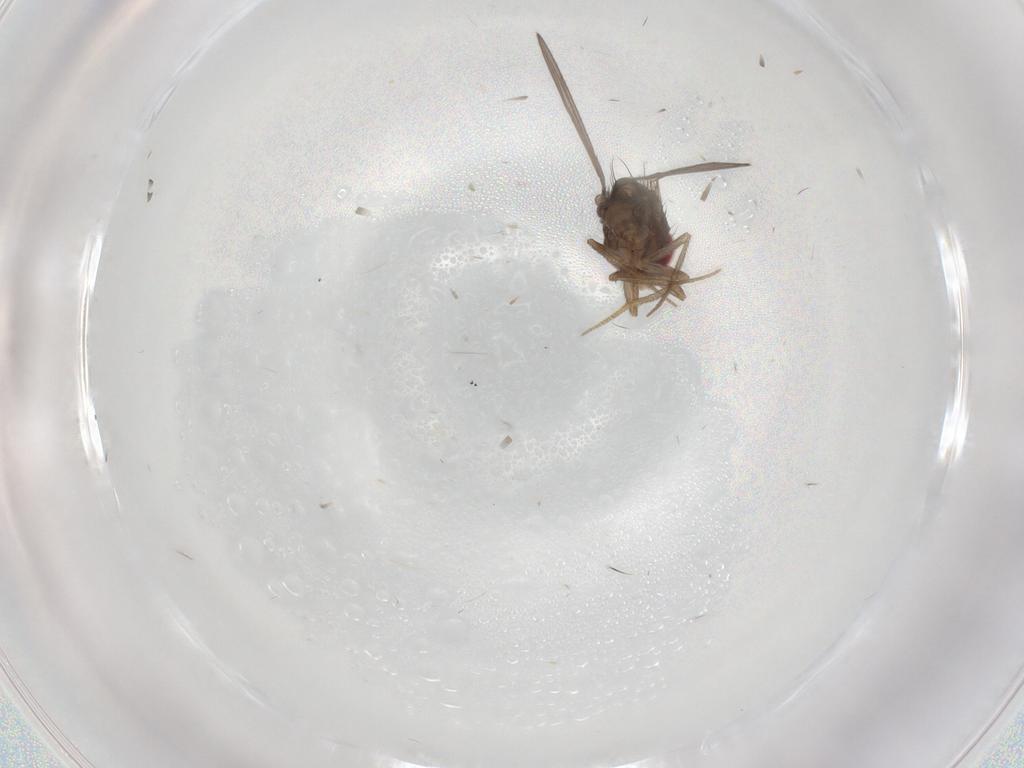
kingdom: Animalia
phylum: Arthropoda
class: Insecta
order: Diptera
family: Drosophilidae
